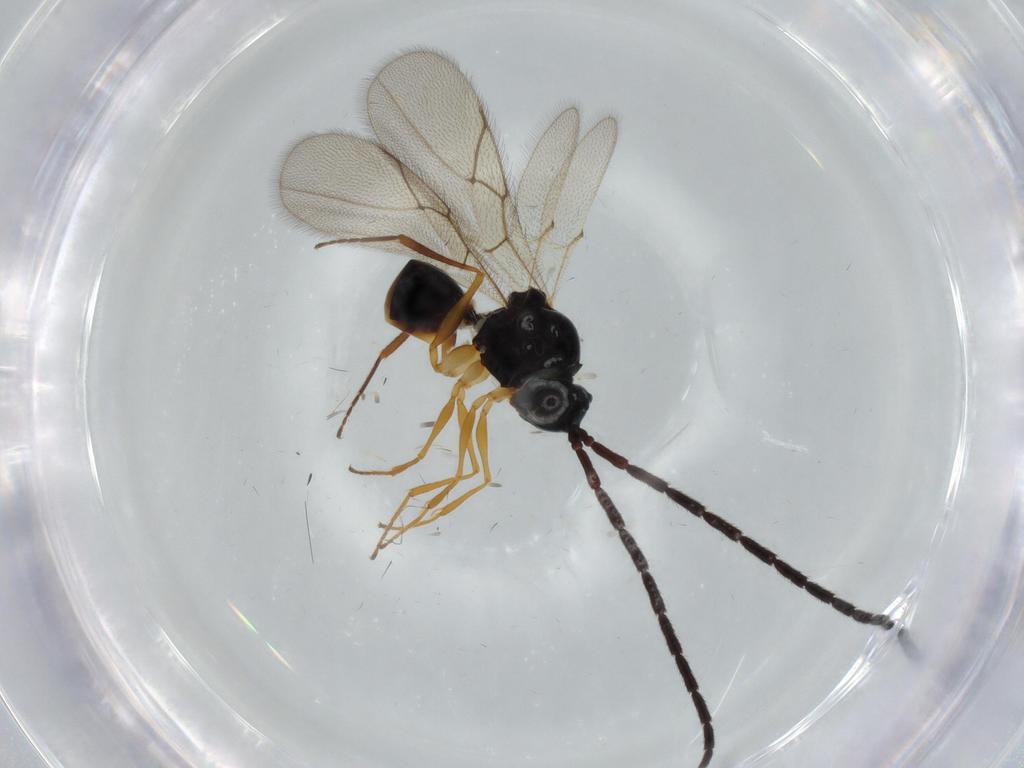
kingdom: Animalia
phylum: Arthropoda
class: Insecta
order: Hymenoptera
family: Figitidae
